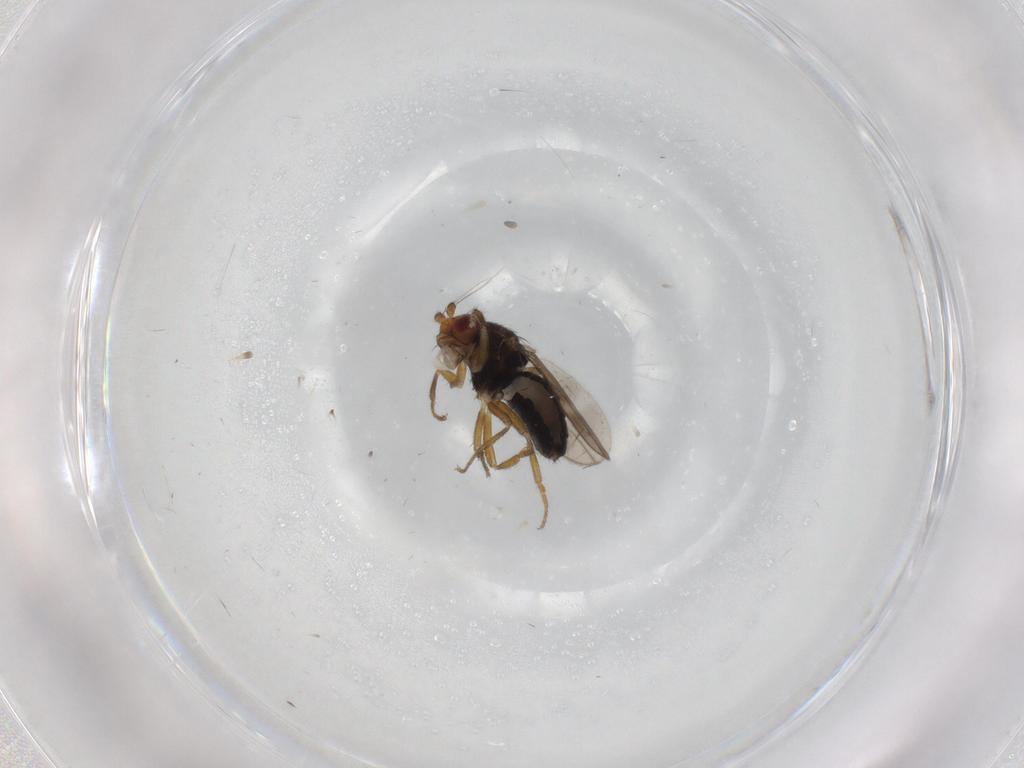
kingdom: Animalia
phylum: Arthropoda
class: Insecta
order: Diptera
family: Sphaeroceridae
